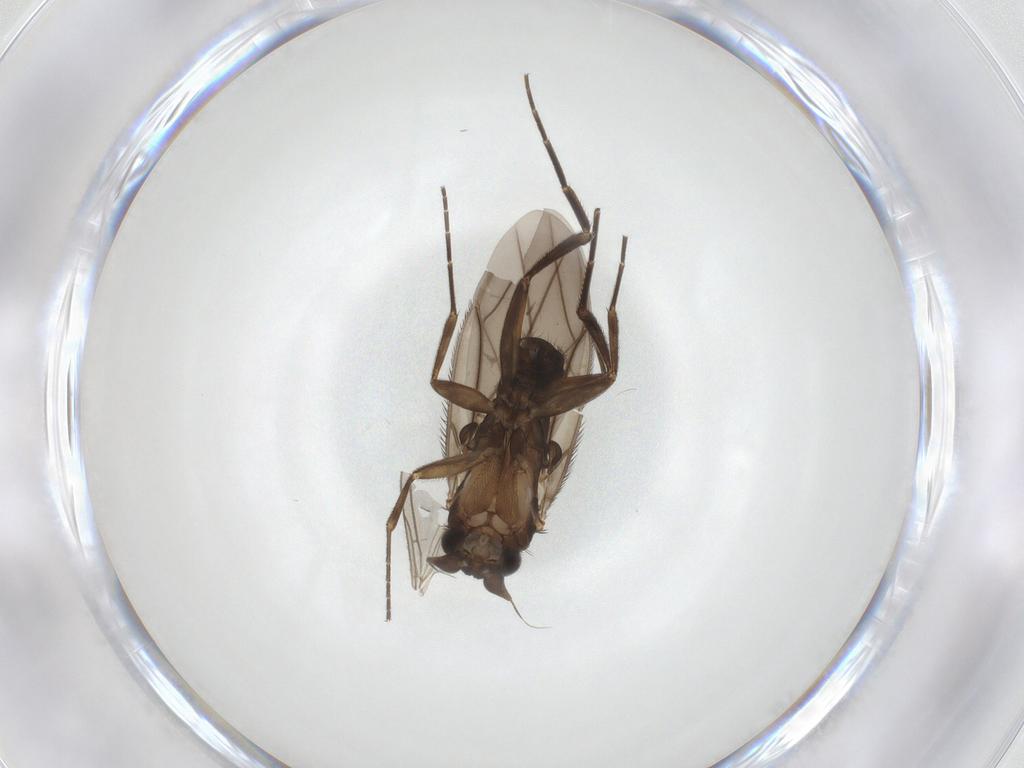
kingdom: Animalia
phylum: Arthropoda
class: Insecta
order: Diptera
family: Phoridae
